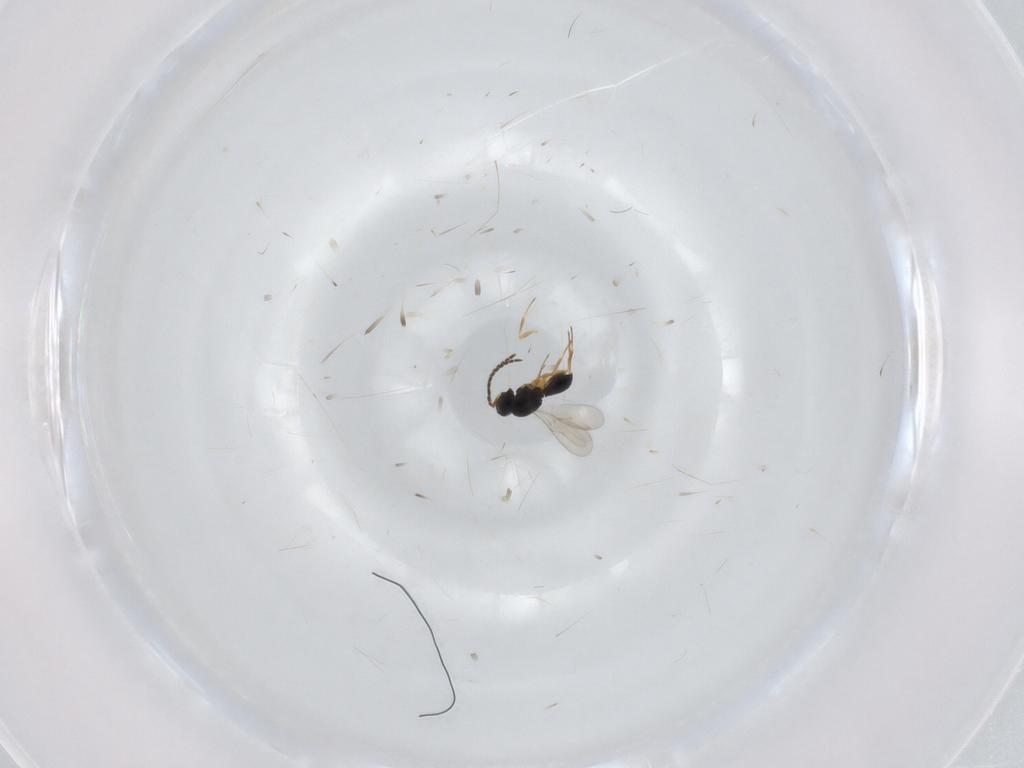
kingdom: Animalia
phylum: Arthropoda
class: Insecta
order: Hymenoptera
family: Scelionidae
